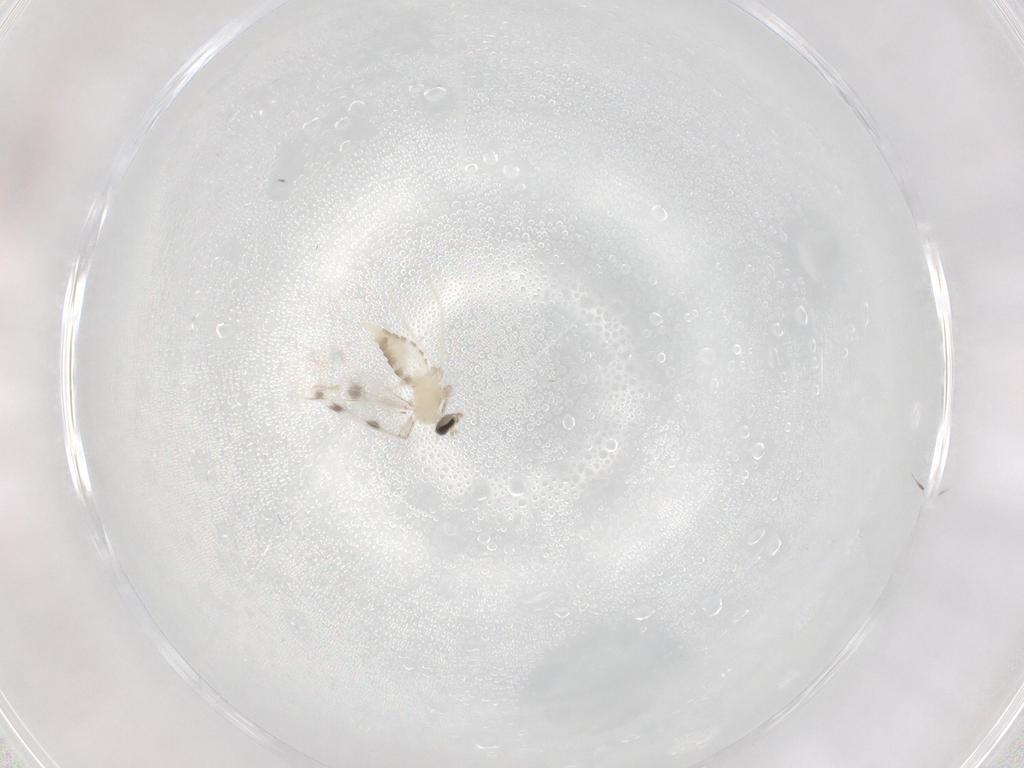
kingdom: Animalia
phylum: Arthropoda
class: Insecta
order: Diptera
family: Cecidomyiidae
